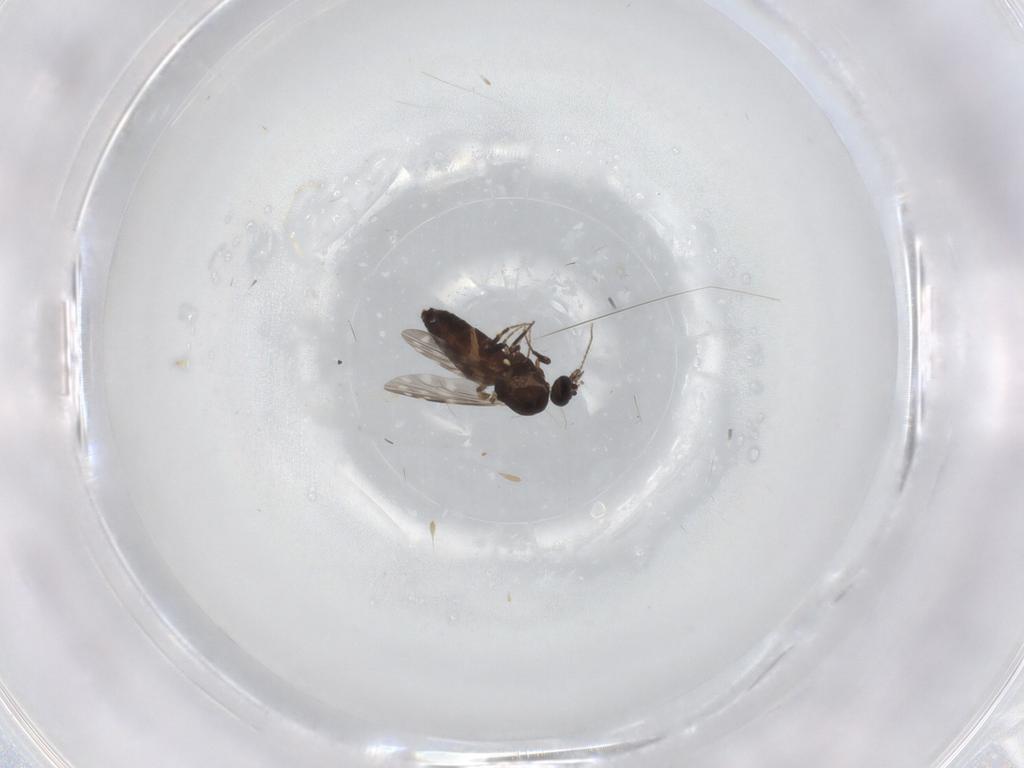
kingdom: Animalia
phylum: Arthropoda
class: Insecta
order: Diptera
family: Cecidomyiidae
